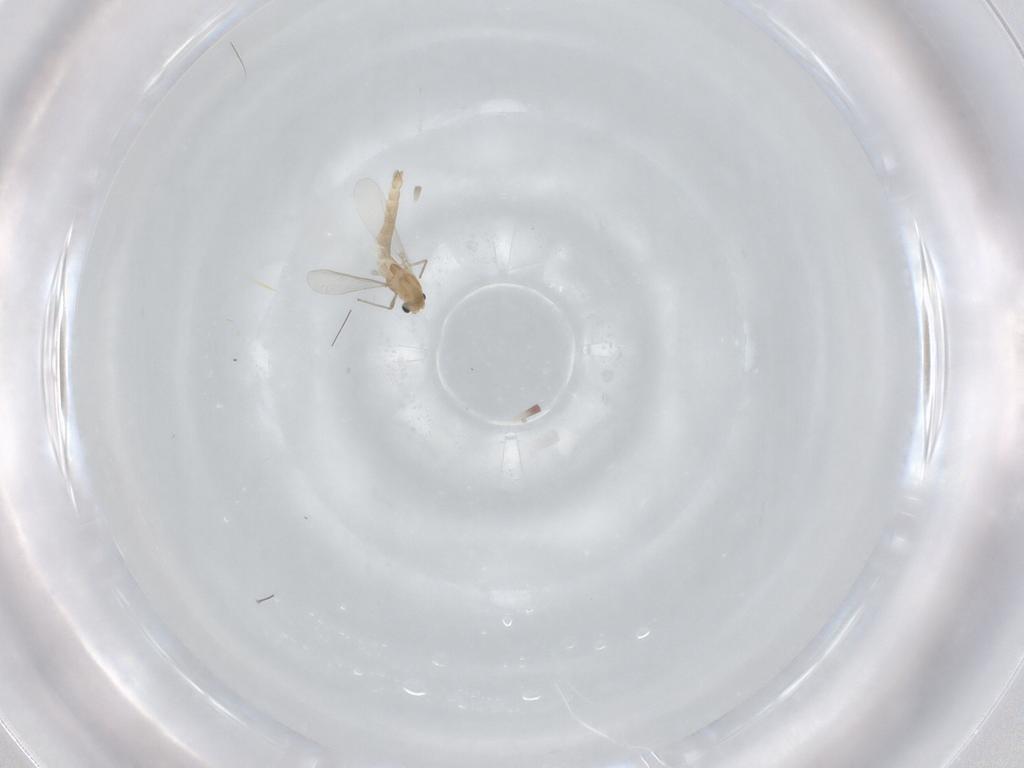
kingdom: Animalia
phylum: Arthropoda
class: Insecta
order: Diptera
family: Chironomidae
